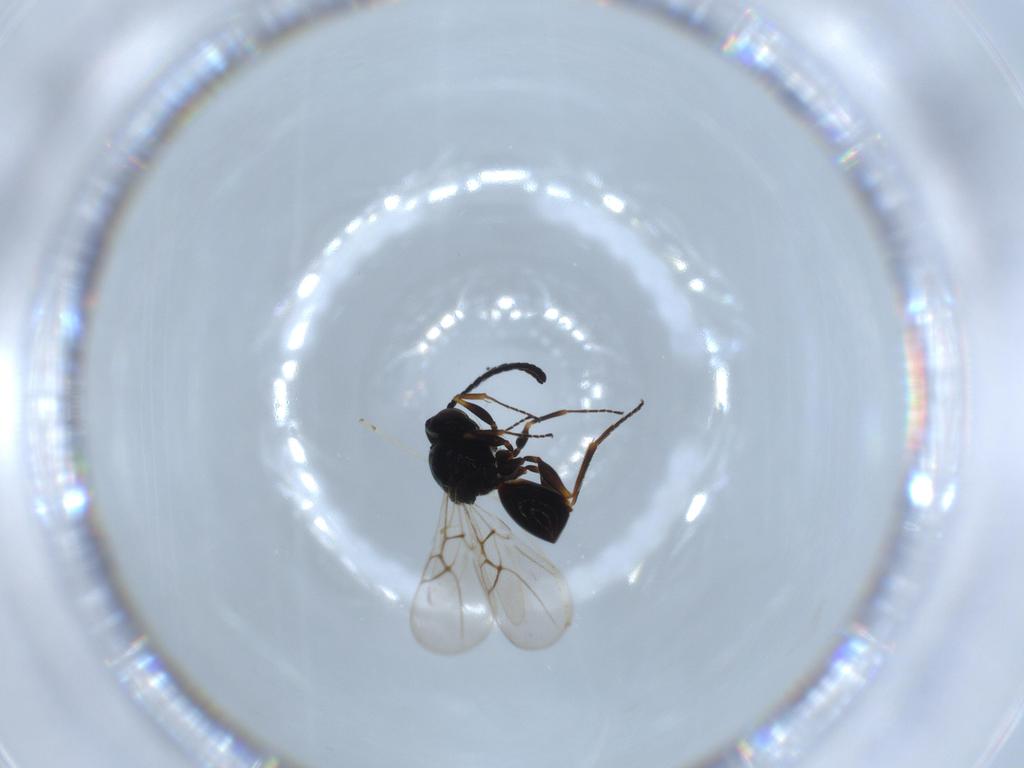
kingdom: Animalia
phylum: Arthropoda
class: Insecta
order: Hymenoptera
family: Figitidae
